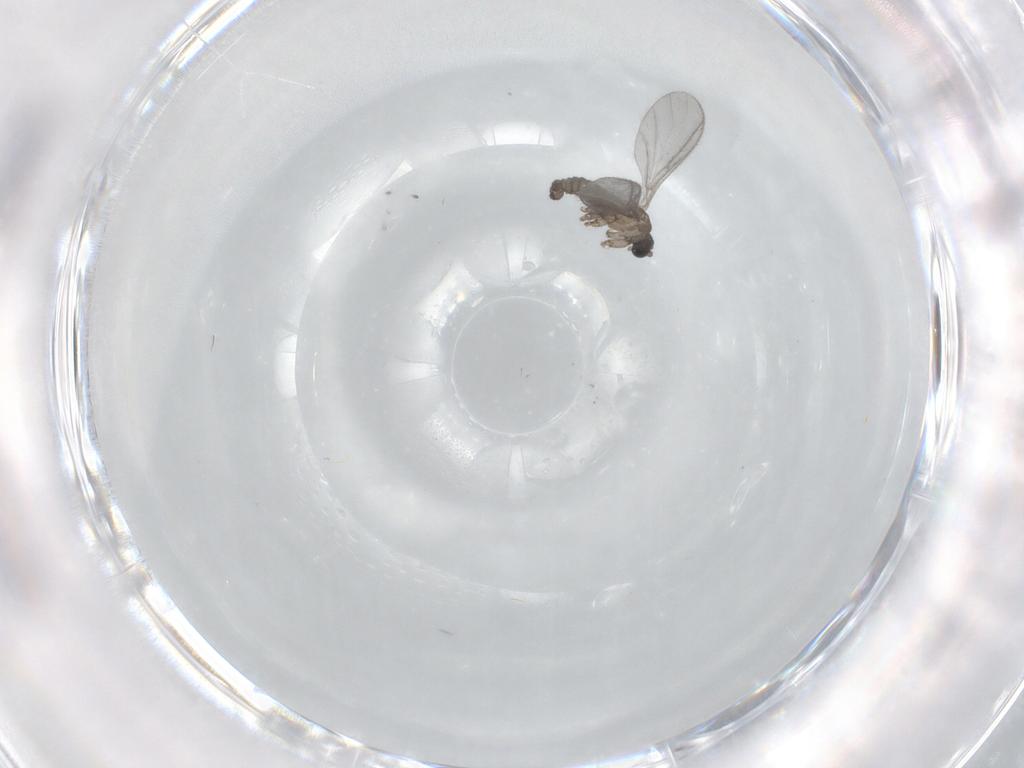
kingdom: Animalia
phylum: Arthropoda
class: Insecta
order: Diptera
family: Sciaridae
